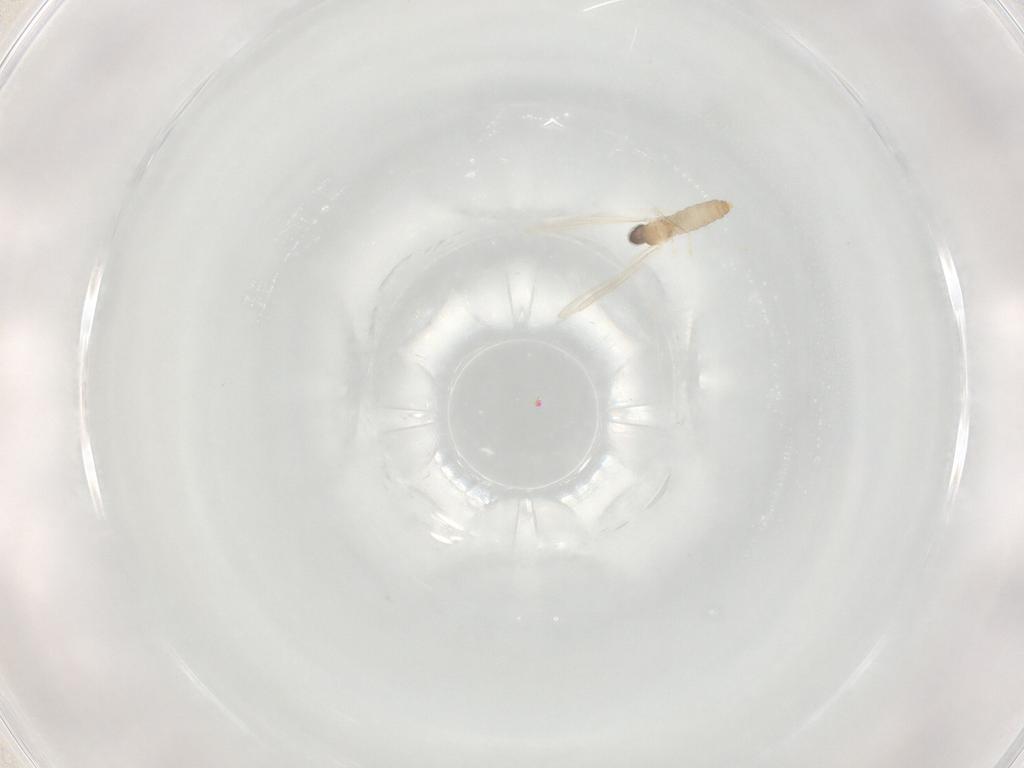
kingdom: Animalia
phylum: Arthropoda
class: Insecta
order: Diptera
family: Cecidomyiidae
